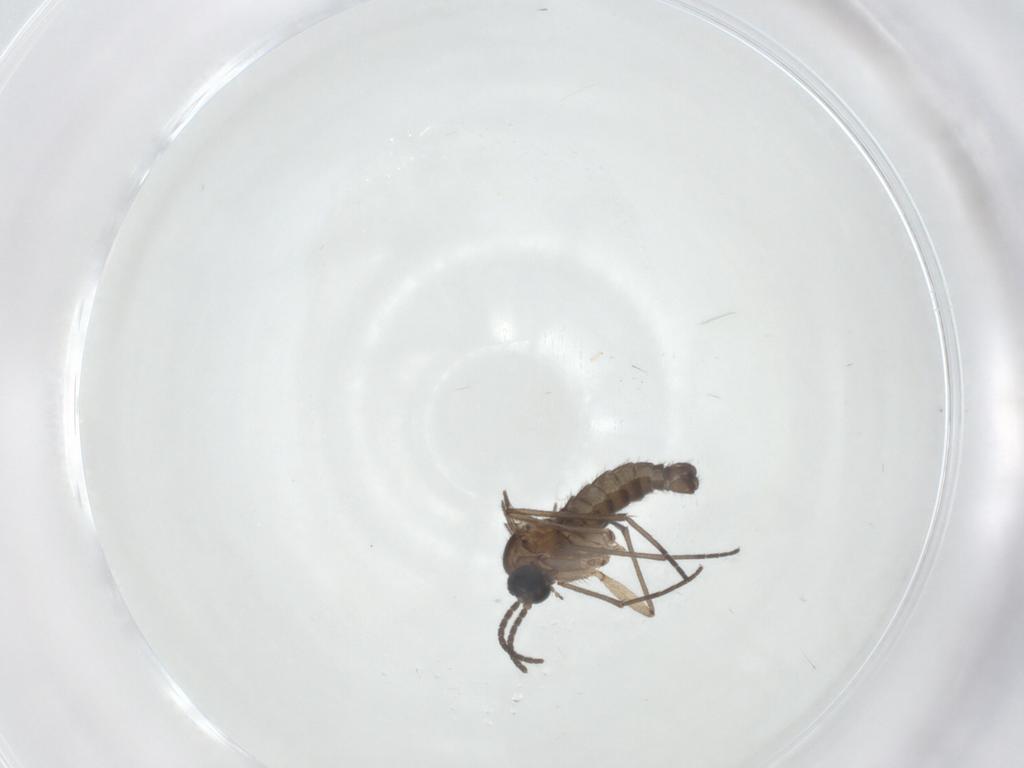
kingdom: Animalia
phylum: Arthropoda
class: Insecta
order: Diptera
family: Sciaridae
